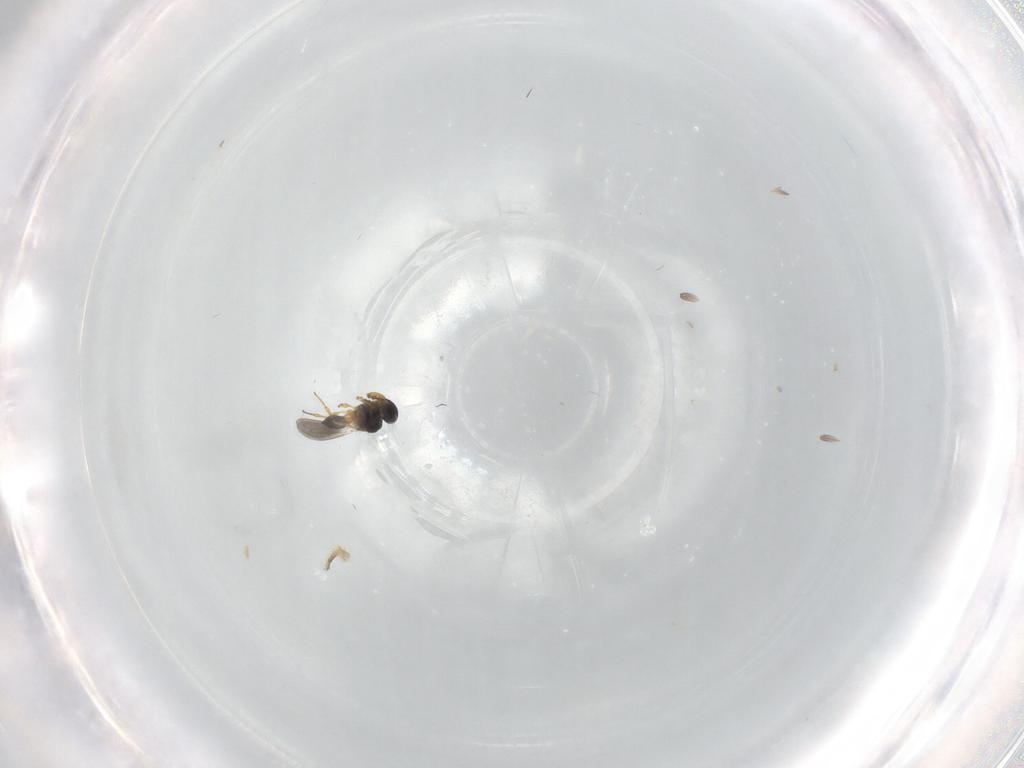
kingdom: Animalia
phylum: Arthropoda
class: Insecta
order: Hymenoptera
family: Platygastridae
